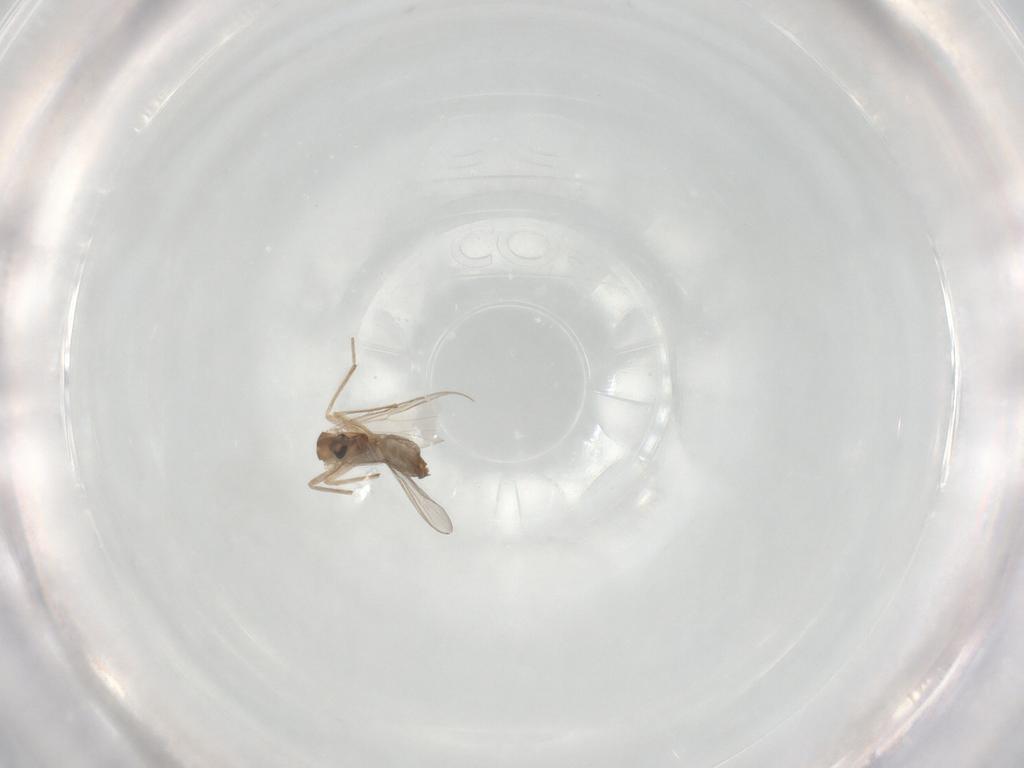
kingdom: Animalia
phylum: Arthropoda
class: Insecta
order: Diptera
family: Chironomidae
